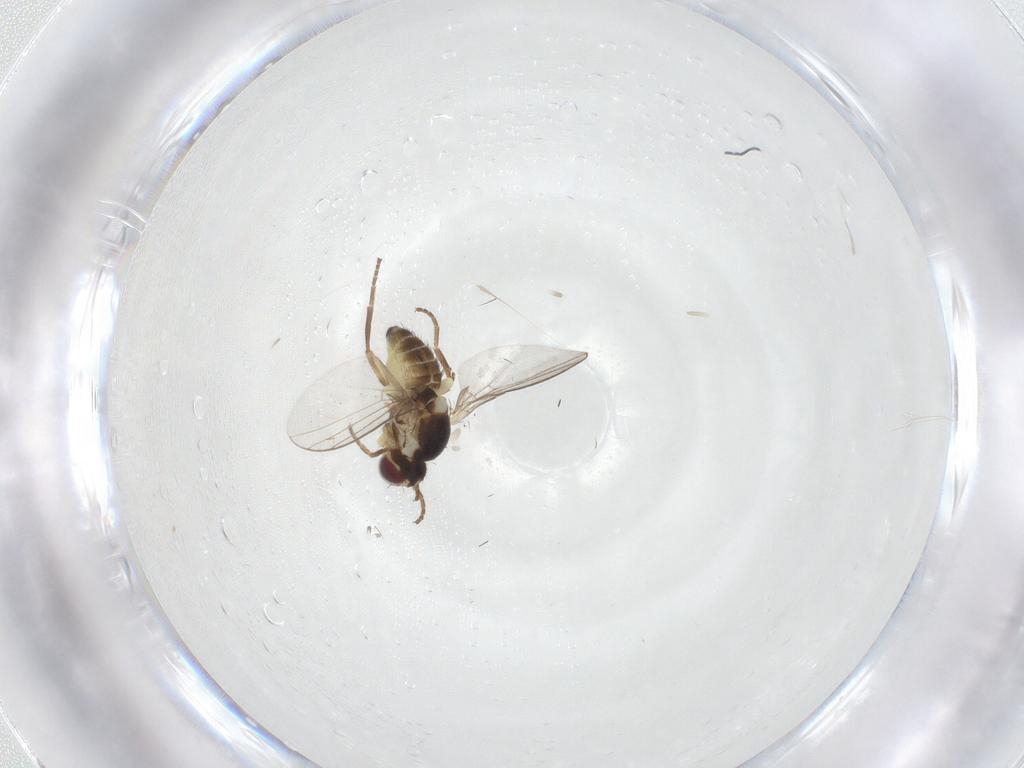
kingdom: Animalia
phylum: Arthropoda
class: Insecta
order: Diptera
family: Agromyzidae
